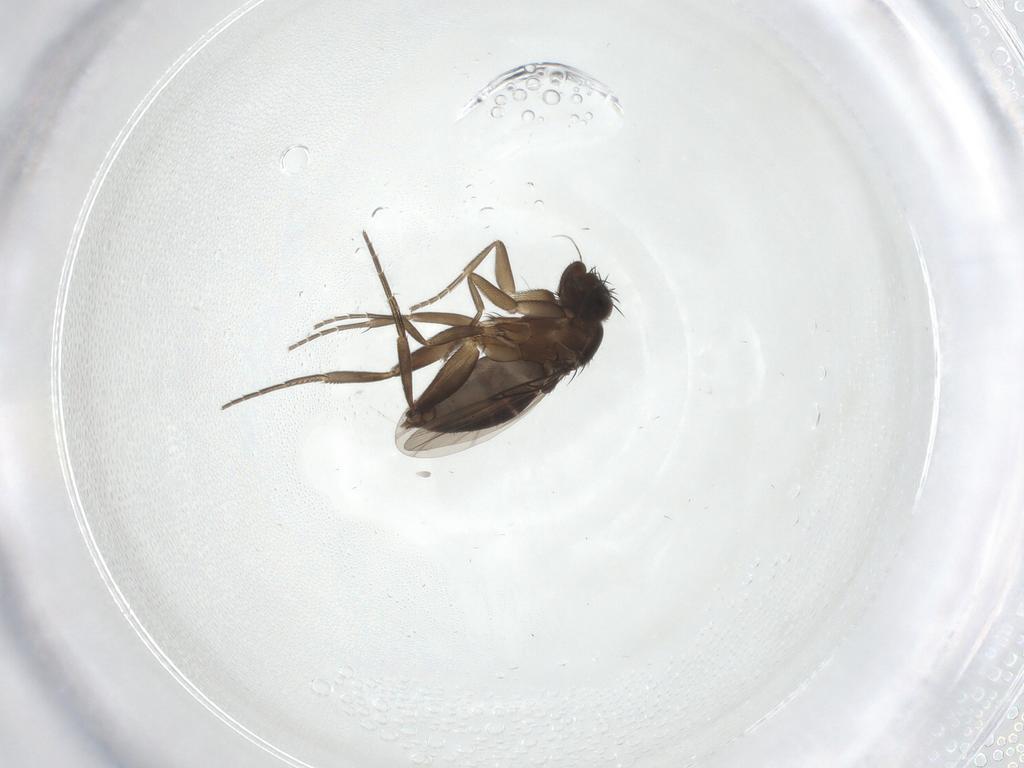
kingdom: Animalia
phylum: Arthropoda
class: Insecta
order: Diptera
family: Phoridae
